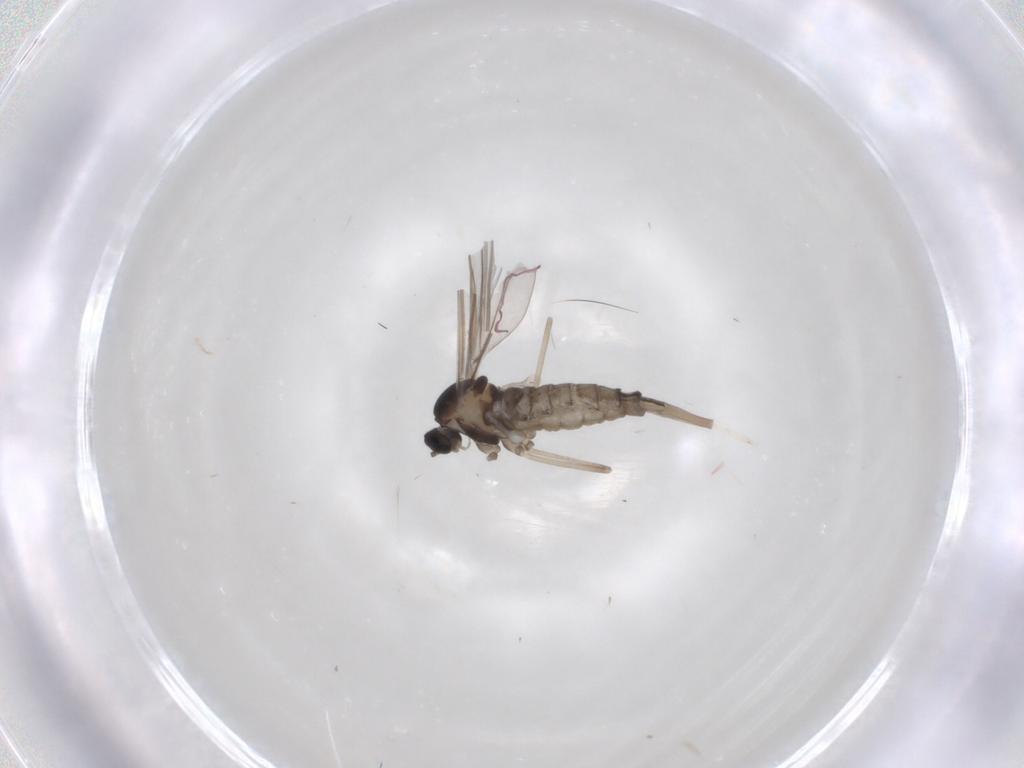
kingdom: Animalia
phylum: Arthropoda
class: Insecta
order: Diptera
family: Cecidomyiidae
